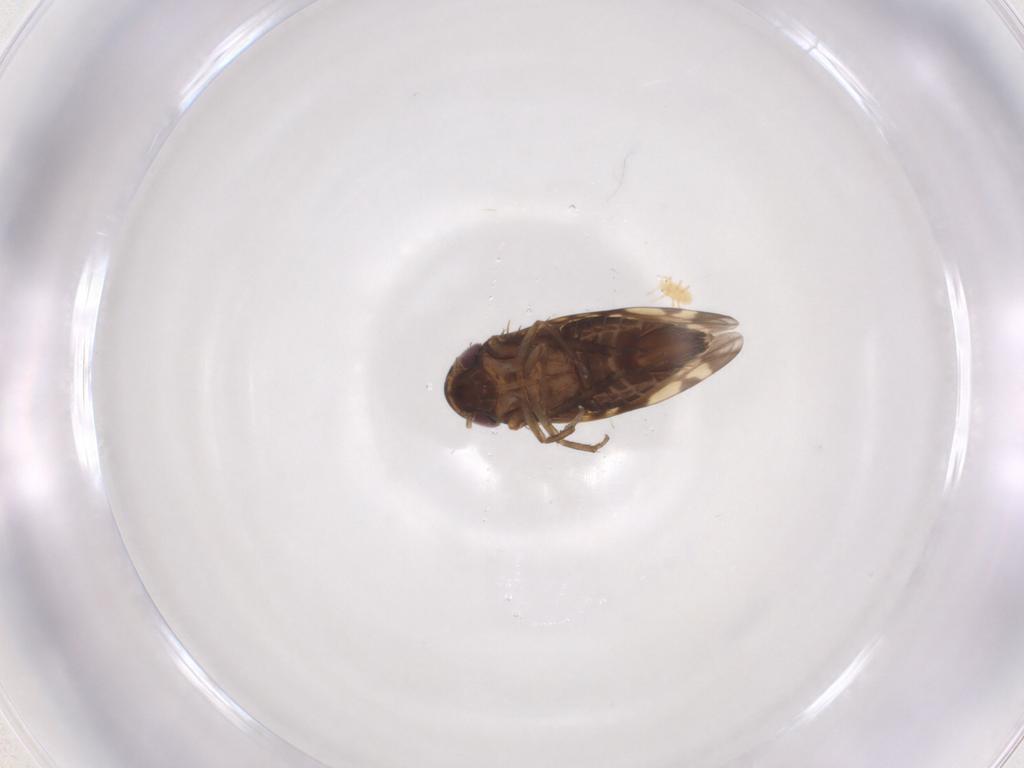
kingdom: Animalia
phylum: Arthropoda
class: Insecta
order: Hemiptera
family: Cicadellidae
